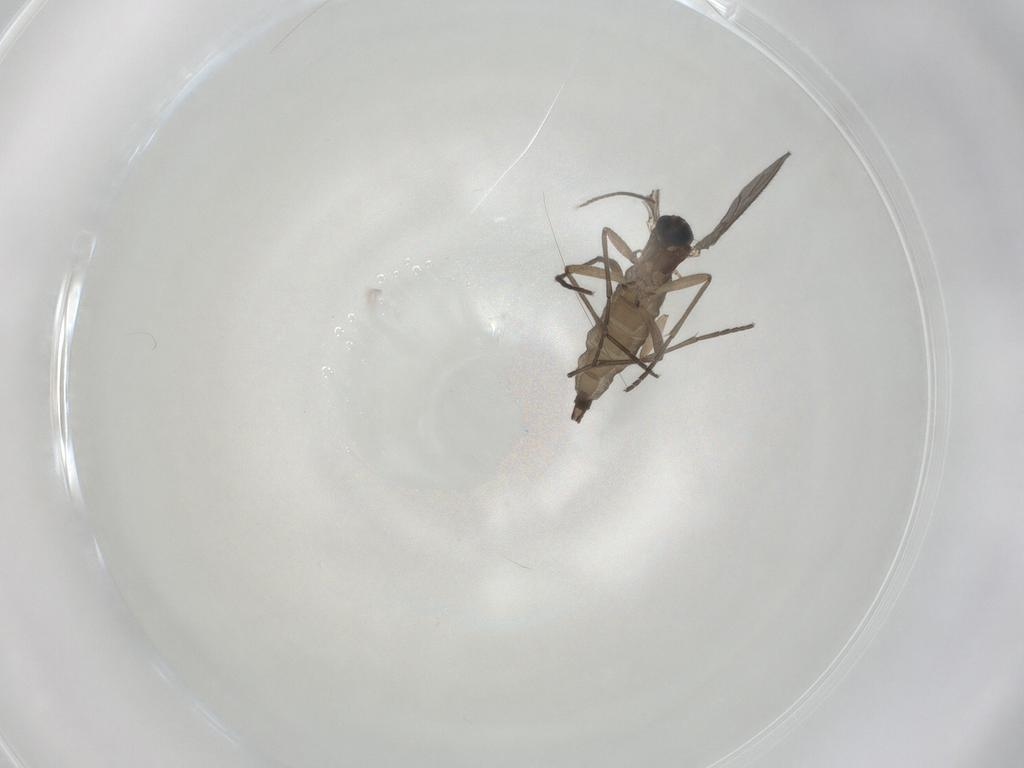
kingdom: Animalia
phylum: Arthropoda
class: Insecta
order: Diptera
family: Sciaridae
